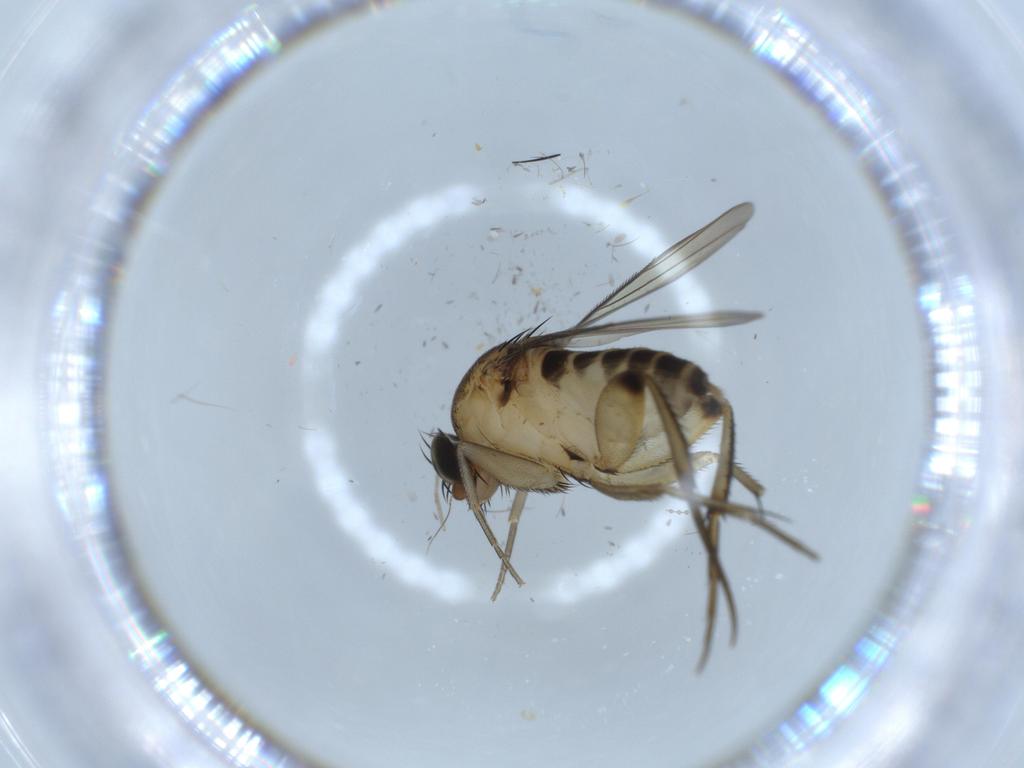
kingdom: Animalia
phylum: Arthropoda
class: Insecta
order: Diptera
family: Cecidomyiidae
